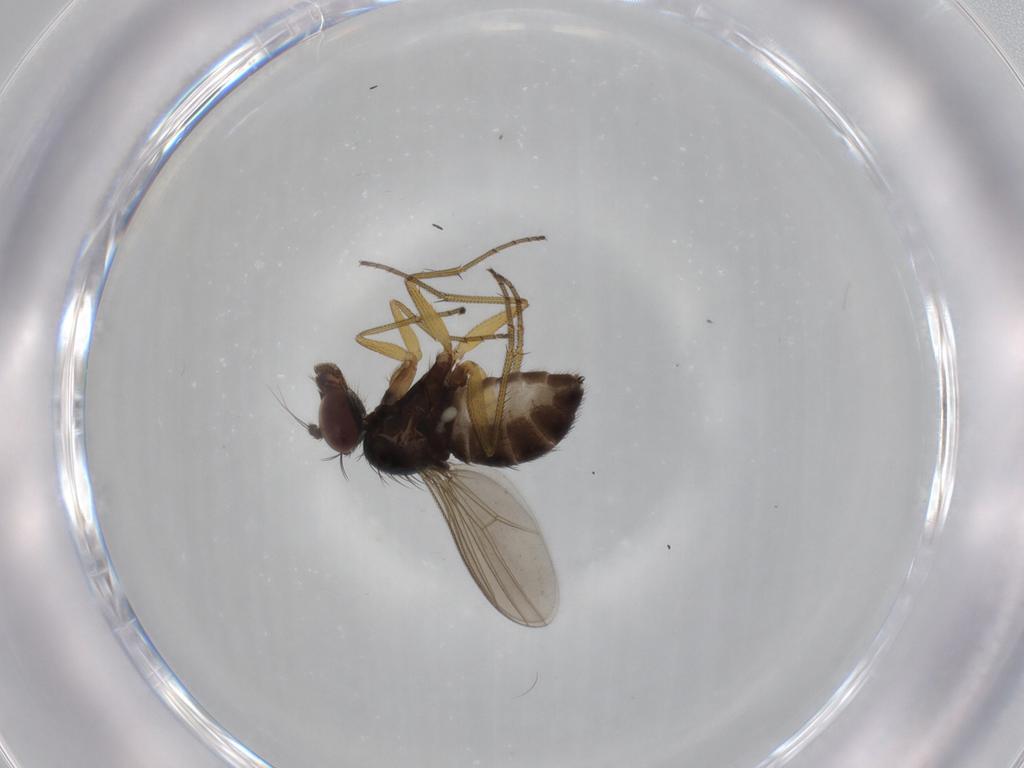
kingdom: Animalia
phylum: Arthropoda
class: Insecta
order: Diptera
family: Dolichopodidae
